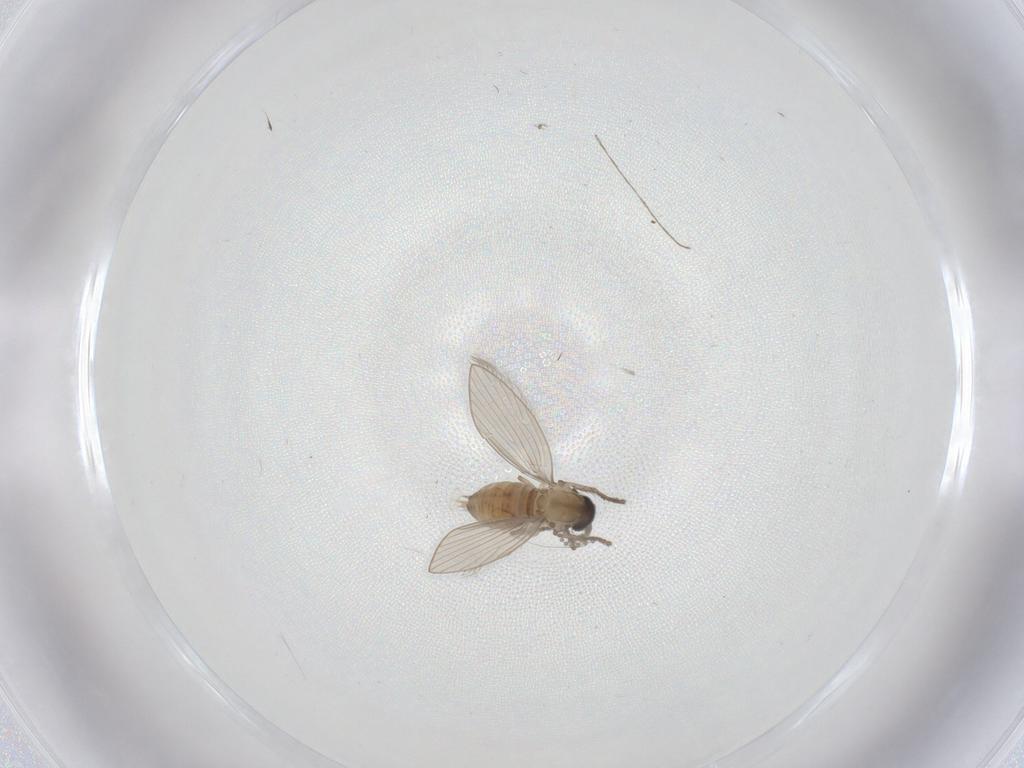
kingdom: Animalia
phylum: Arthropoda
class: Insecta
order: Diptera
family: Psychodidae
